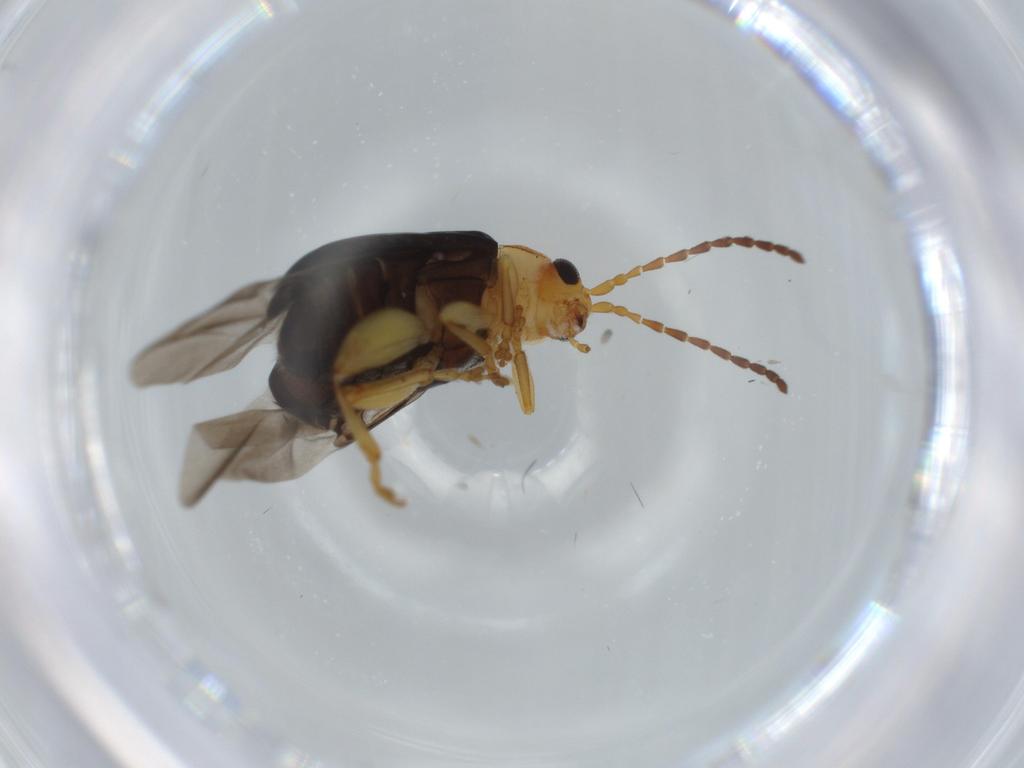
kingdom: Animalia
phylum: Arthropoda
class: Insecta
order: Coleoptera
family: Chrysomelidae
